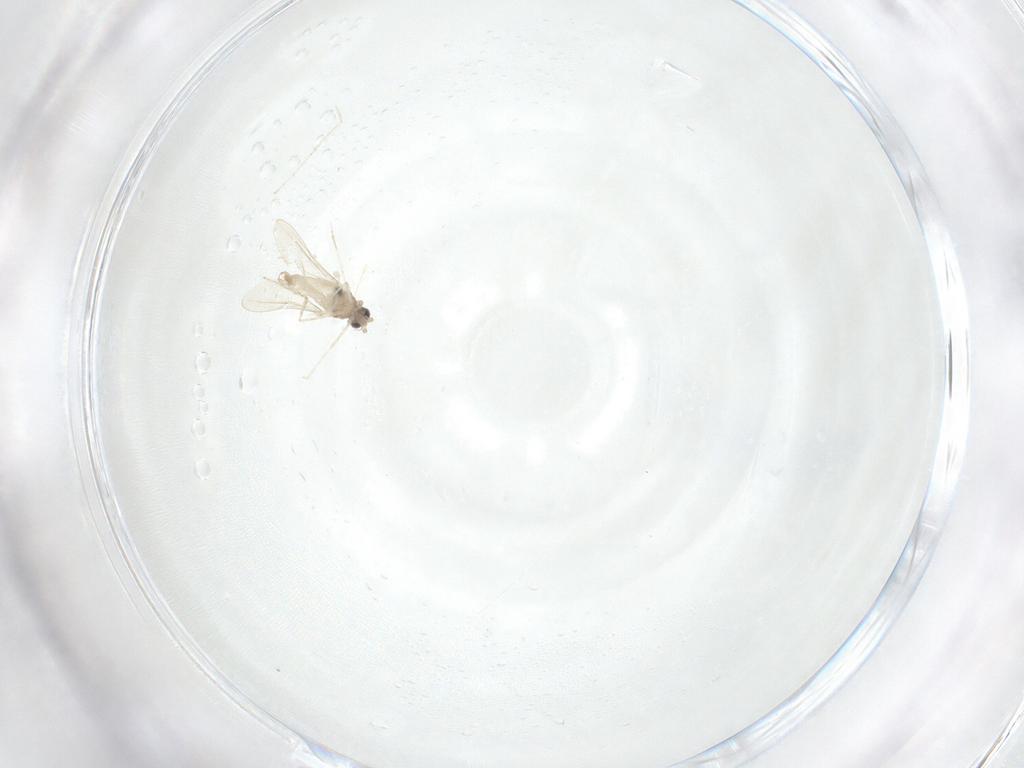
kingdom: Animalia
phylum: Arthropoda
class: Insecta
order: Diptera
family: Cecidomyiidae
